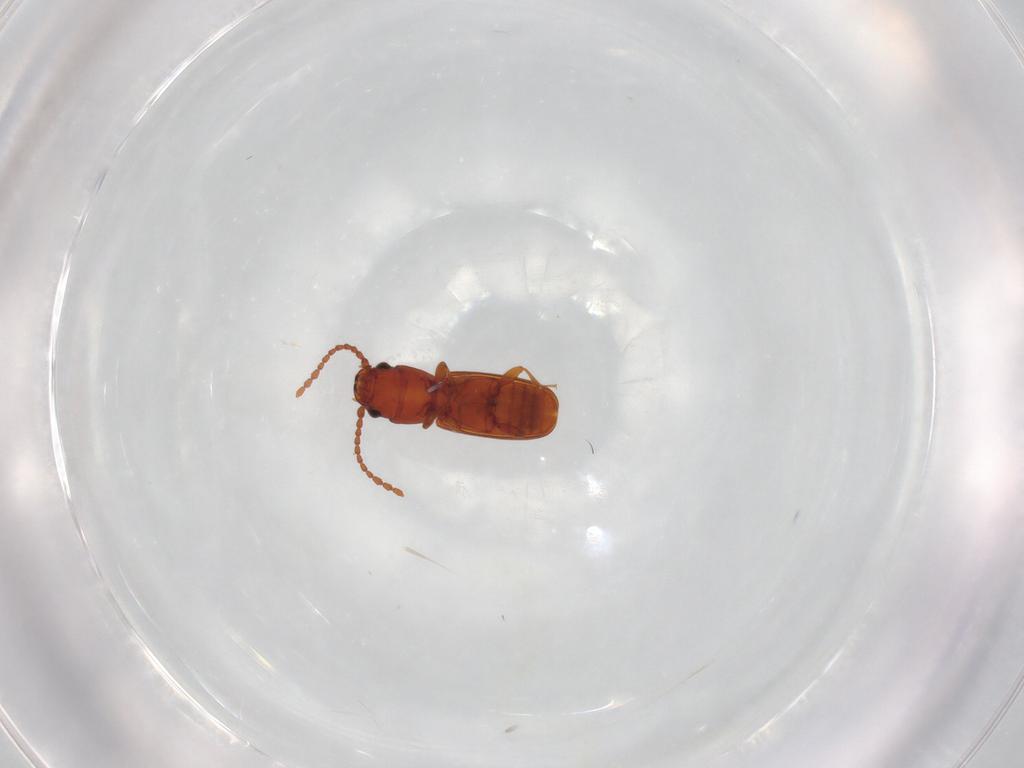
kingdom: Animalia
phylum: Arthropoda
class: Insecta
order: Coleoptera
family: Laemophloeidae
